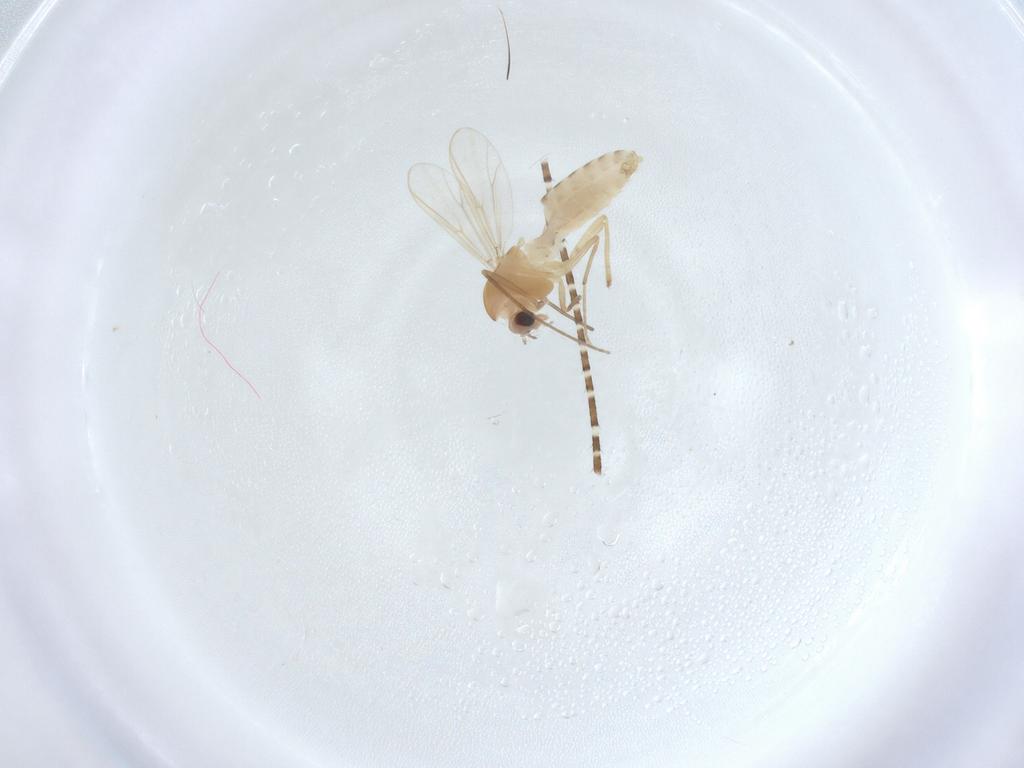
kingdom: Animalia
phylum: Arthropoda
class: Insecta
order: Diptera
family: Chironomidae
